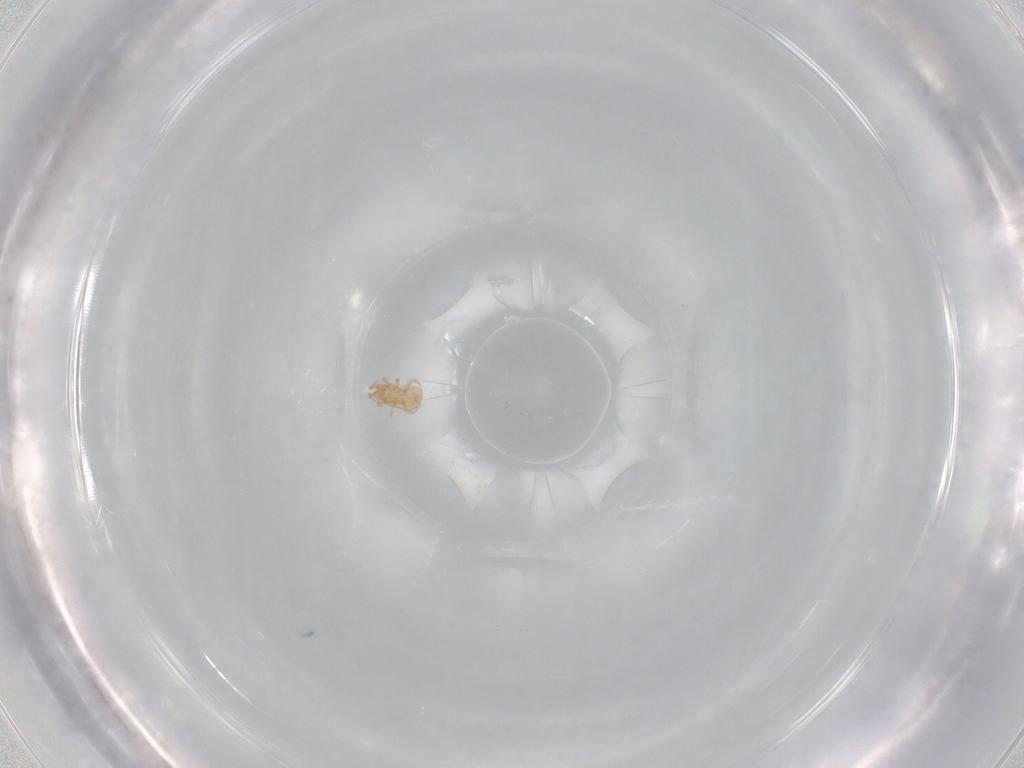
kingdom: Animalia
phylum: Arthropoda
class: Arachnida
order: Mesostigmata
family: Ascidae
